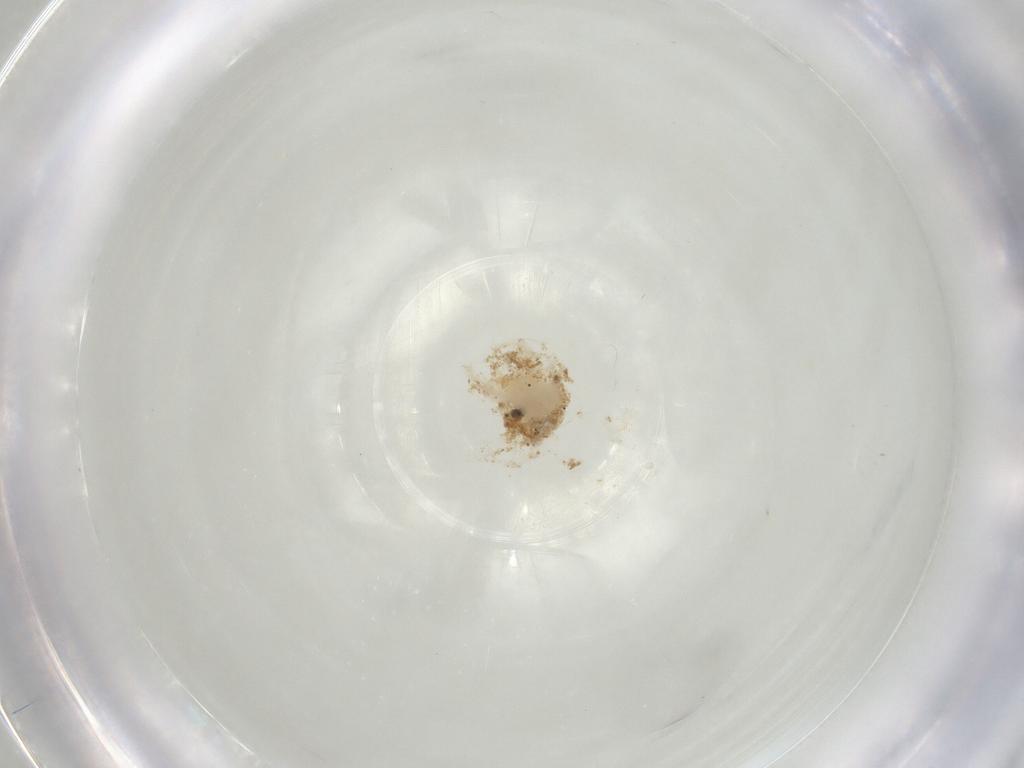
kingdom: Animalia
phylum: Arthropoda
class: Arachnida
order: Trombidiformes
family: Anystidae
